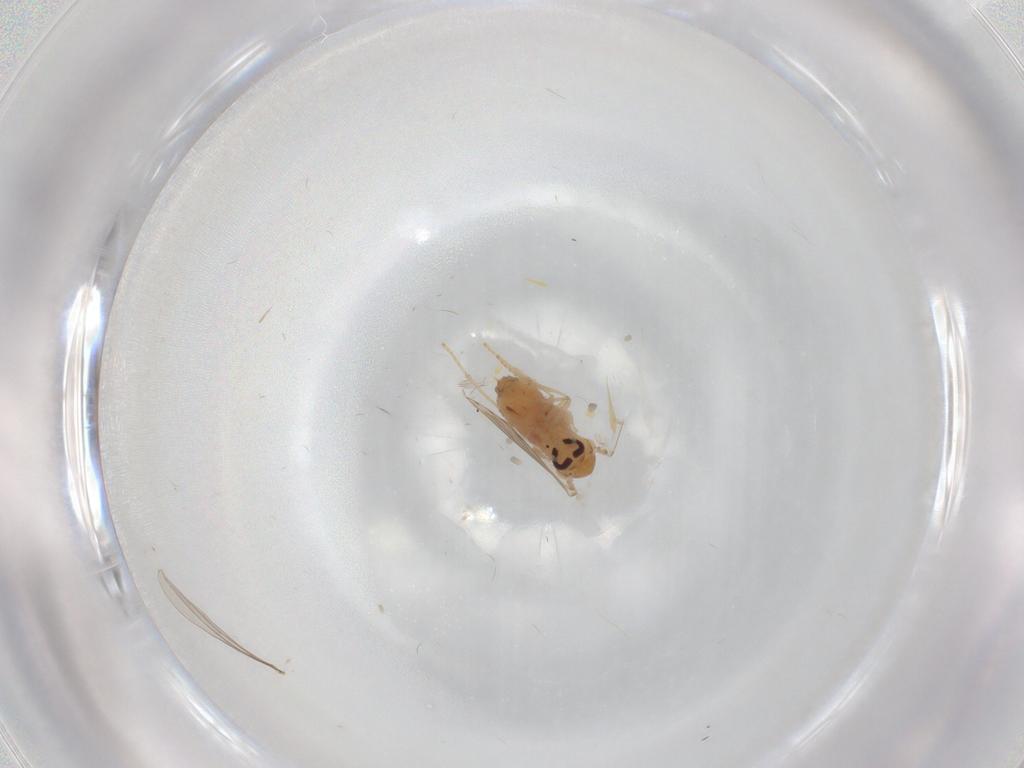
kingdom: Animalia
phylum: Arthropoda
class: Insecta
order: Diptera
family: Psychodidae
